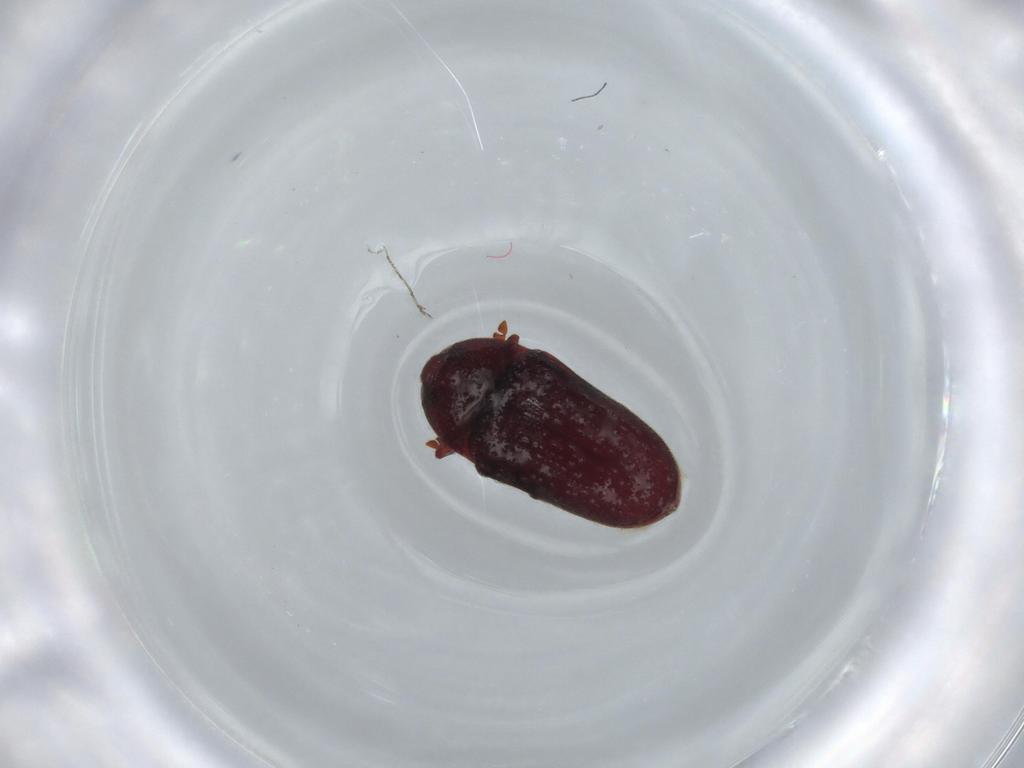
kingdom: Animalia
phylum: Arthropoda
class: Insecta
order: Coleoptera
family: Throscidae
